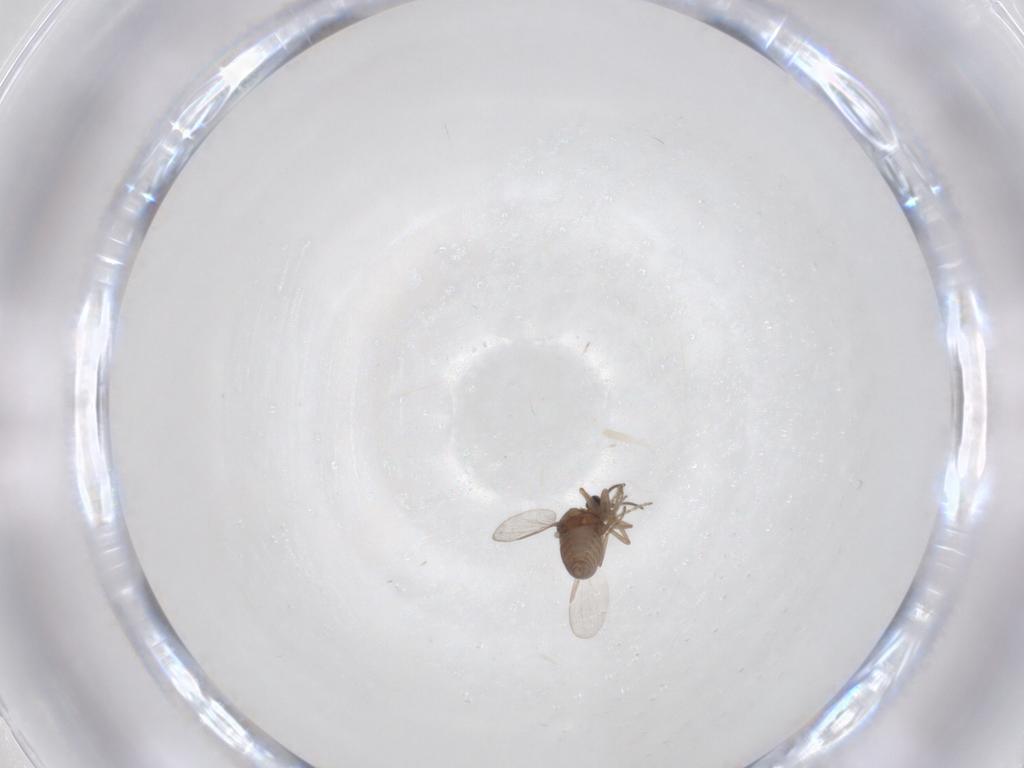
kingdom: Animalia
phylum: Arthropoda
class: Insecta
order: Diptera
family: Ceratopogonidae
